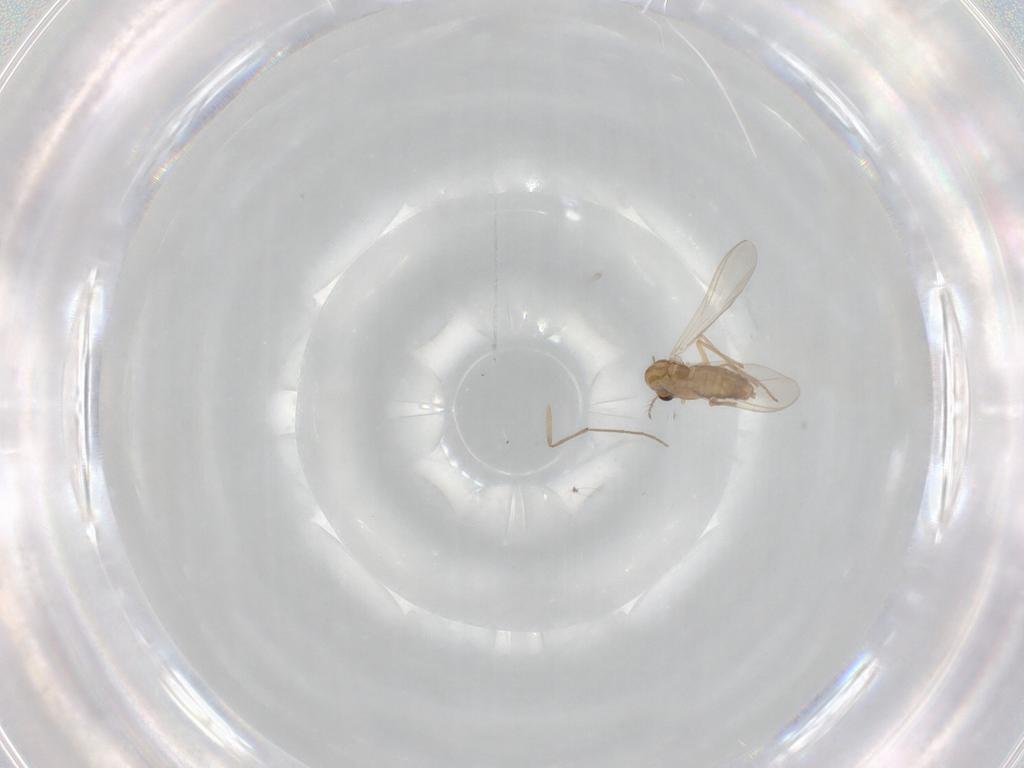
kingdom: Animalia
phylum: Arthropoda
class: Insecta
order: Diptera
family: Chironomidae
